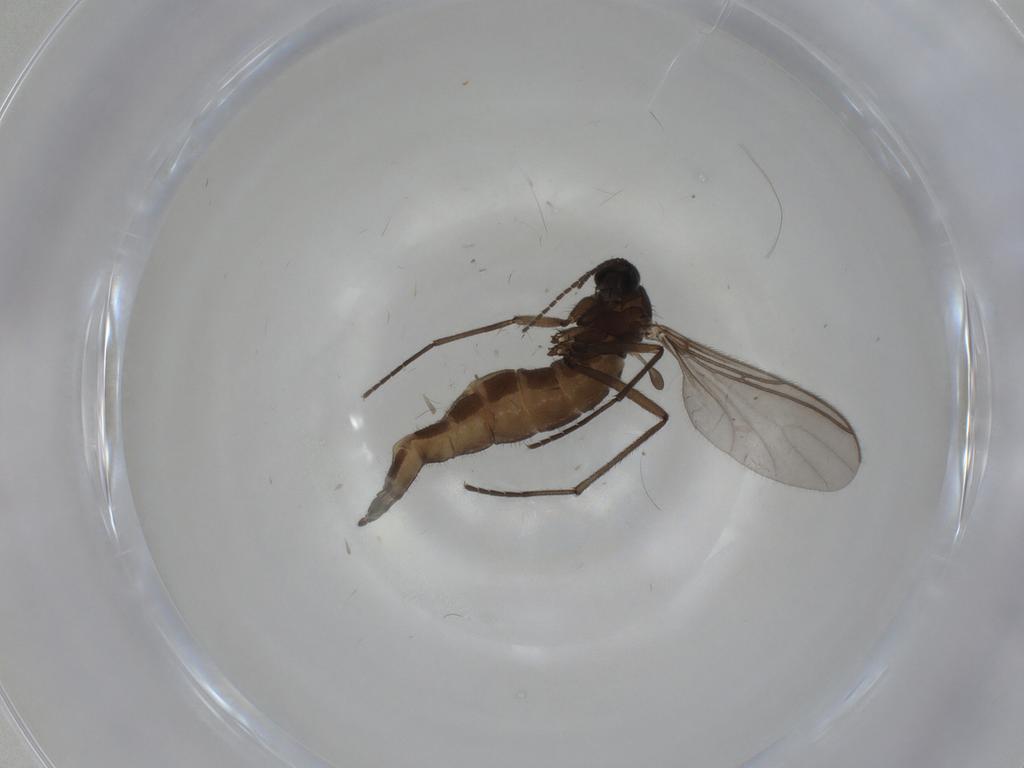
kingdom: Animalia
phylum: Arthropoda
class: Insecta
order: Diptera
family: Sciaridae
